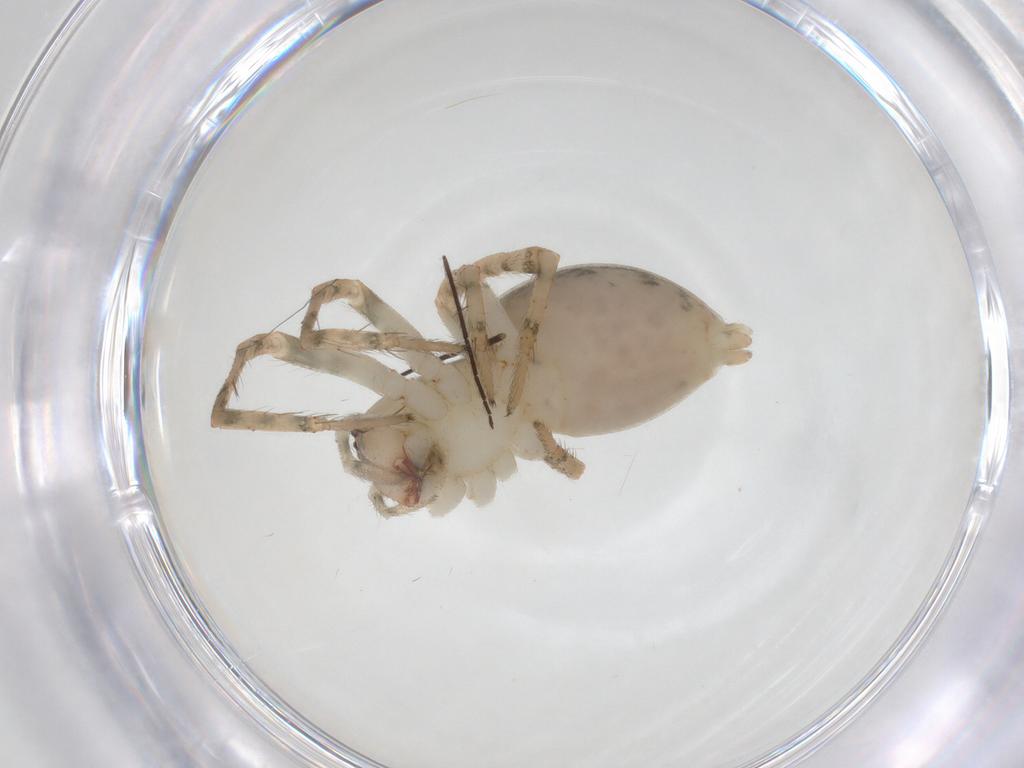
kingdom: Animalia
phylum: Arthropoda
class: Arachnida
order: Araneae
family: Dictynidae
